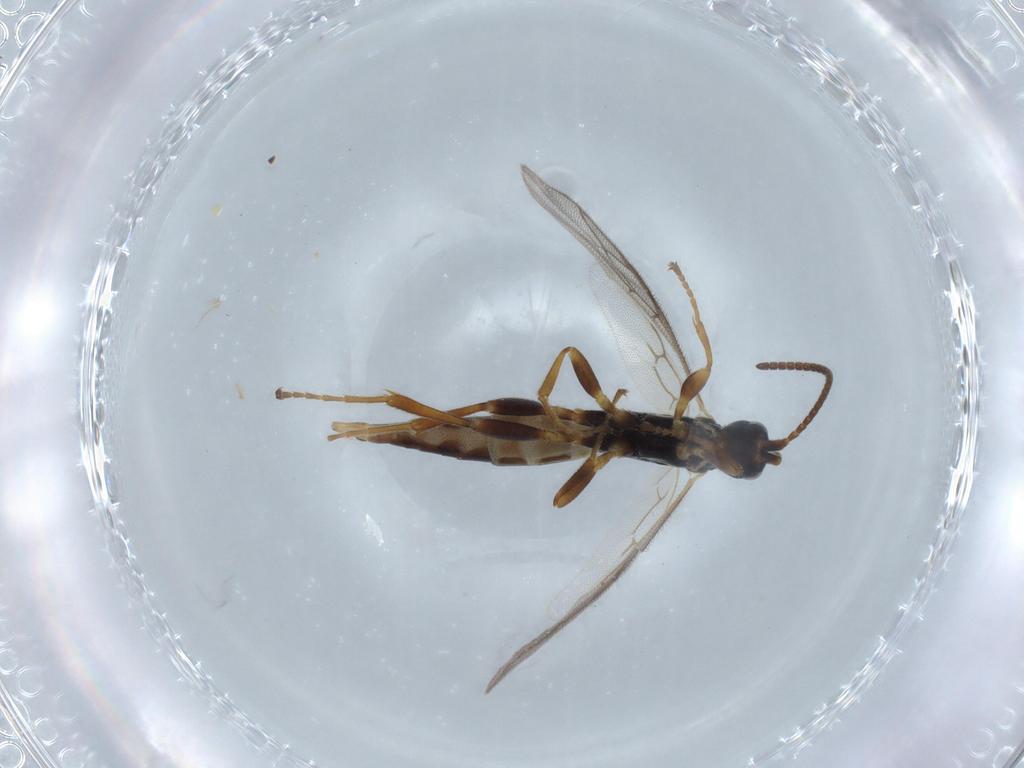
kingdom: Animalia
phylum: Arthropoda
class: Insecta
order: Hymenoptera
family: Ichneumonidae
